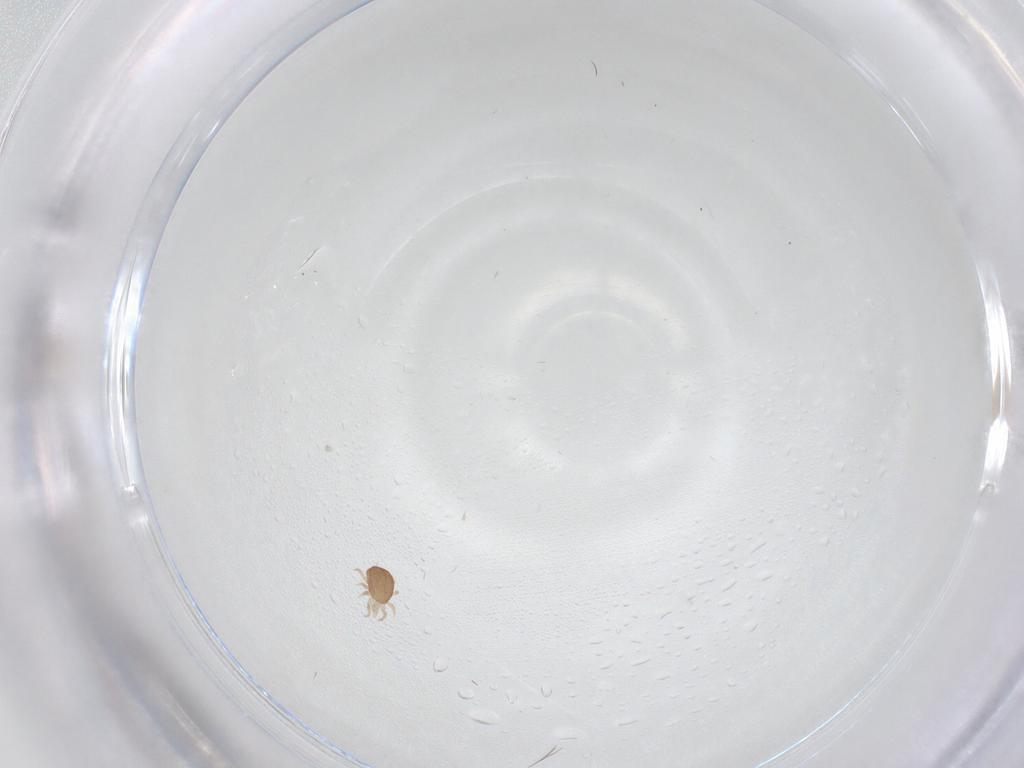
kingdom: Animalia
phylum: Arthropoda
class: Arachnida
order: Mesostigmata
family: Ascidae
